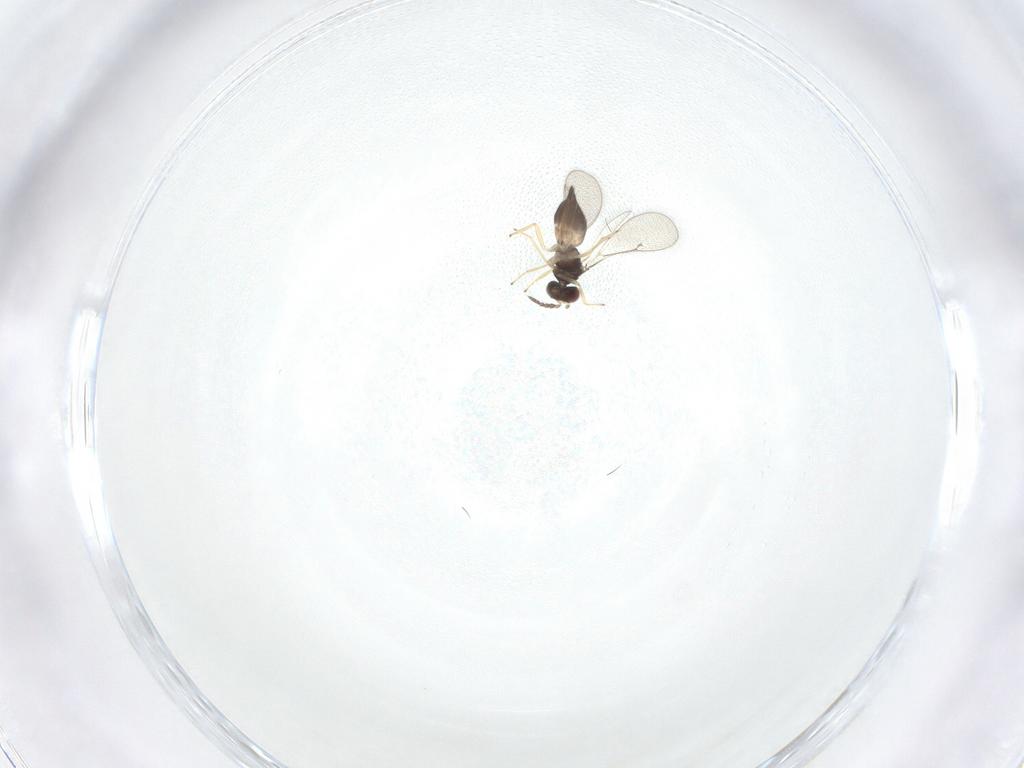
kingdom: Animalia
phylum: Arthropoda
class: Insecta
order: Hymenoptera
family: Eulophidae
